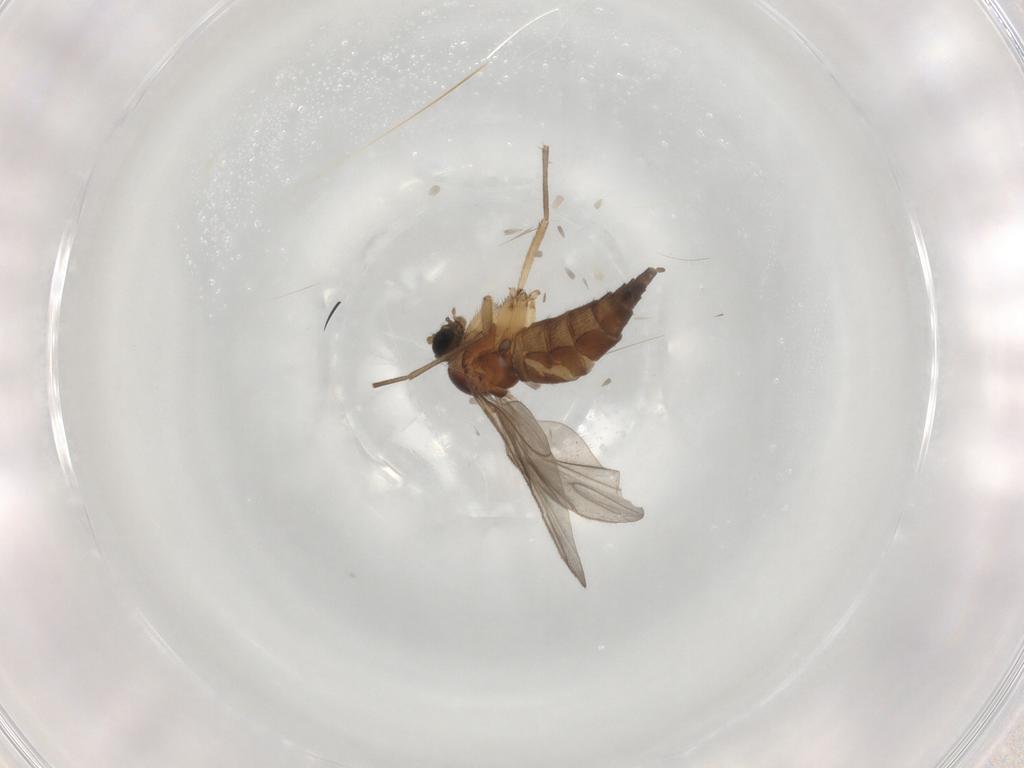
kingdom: Animalia
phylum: Arthropoda
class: Insecta
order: Diptera
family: Sciaridae
